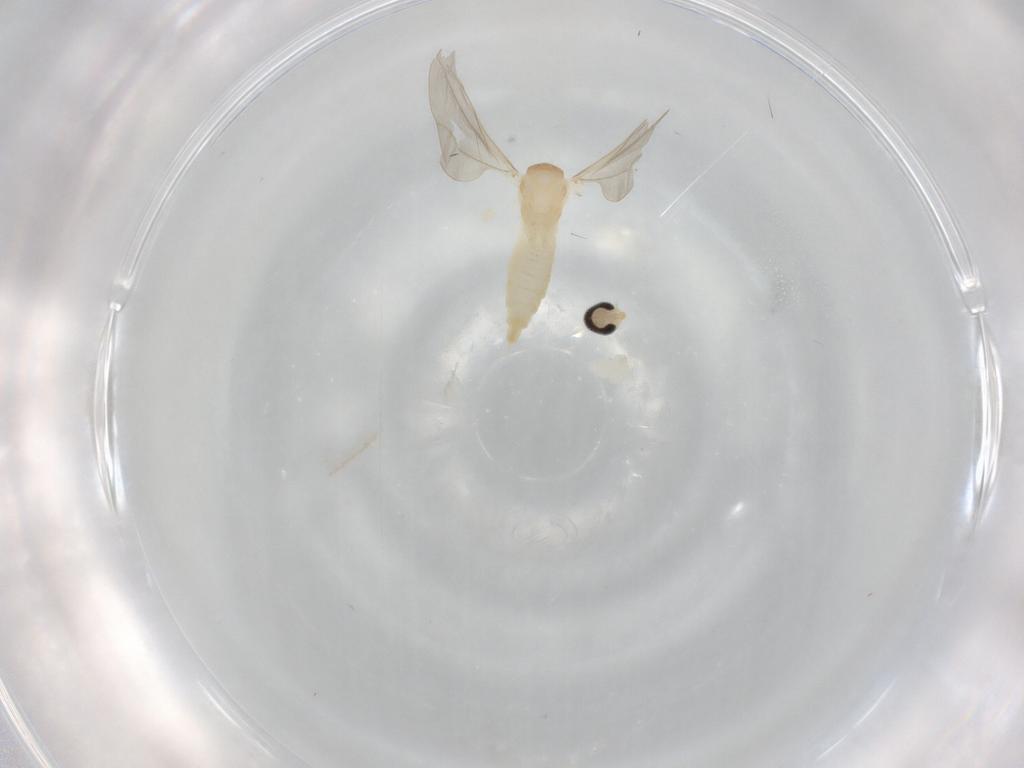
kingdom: Animalia
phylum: Arthropoda
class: Insecta
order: Diptera
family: Cecidomyiidae
